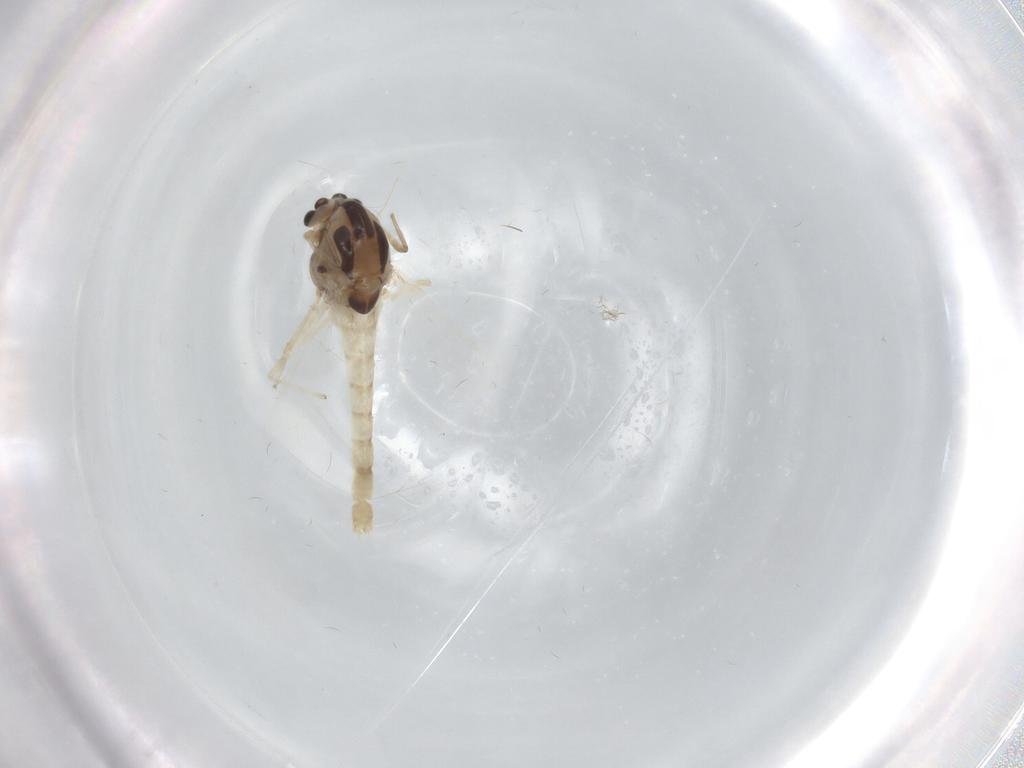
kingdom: Animalia
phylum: Arthropoda
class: Insecta
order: Diptera
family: Chironomidae
